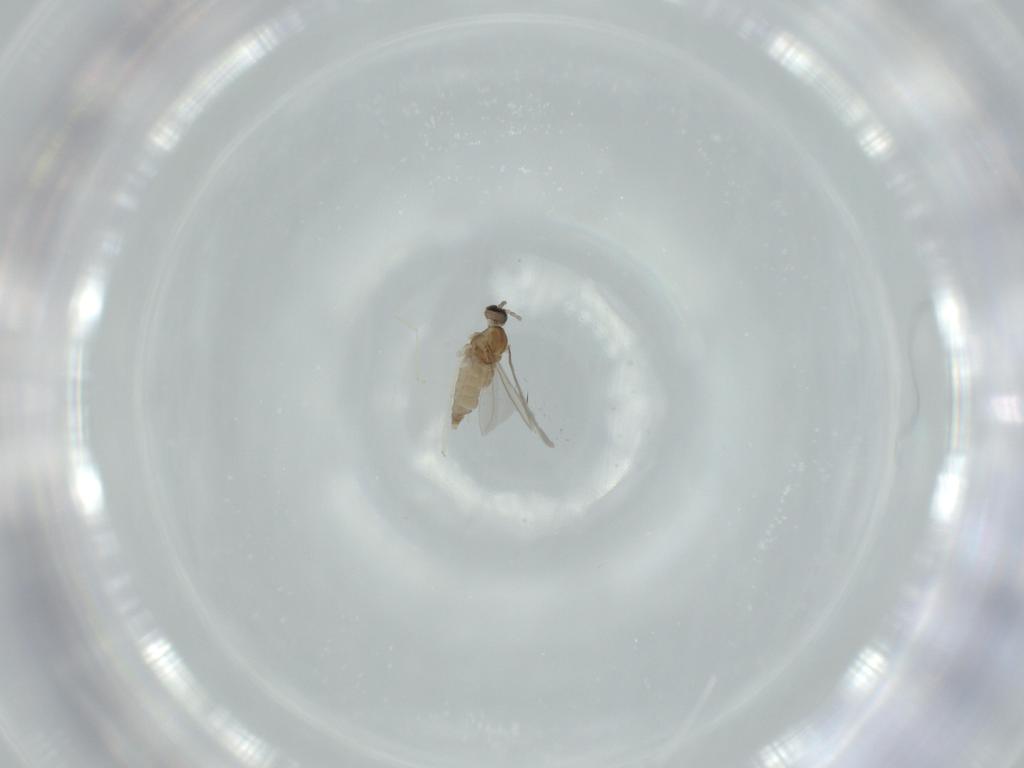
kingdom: Animalia
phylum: Arthropoda
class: Insecta
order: Diptera
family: Cecidomyiidae
